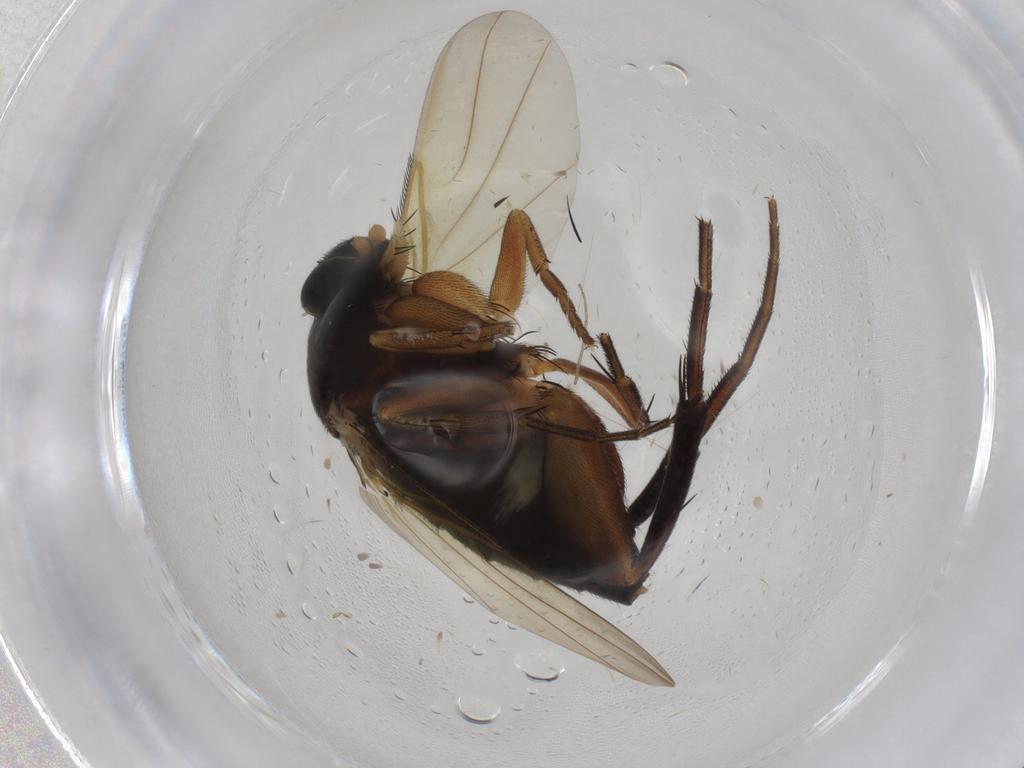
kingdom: Animalia
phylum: Arthropoda
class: Insecta
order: Diptera
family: Phoridae
